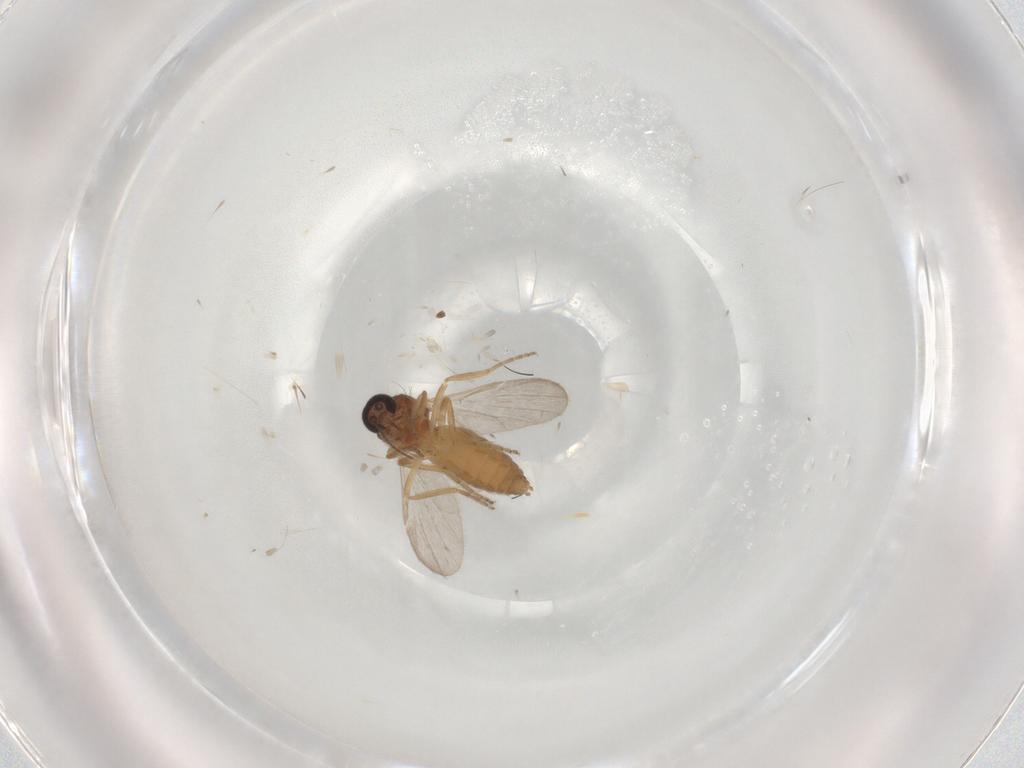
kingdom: Animalia
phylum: Arthropoda
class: Insecta
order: Diptera
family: Ceratopogonidae
